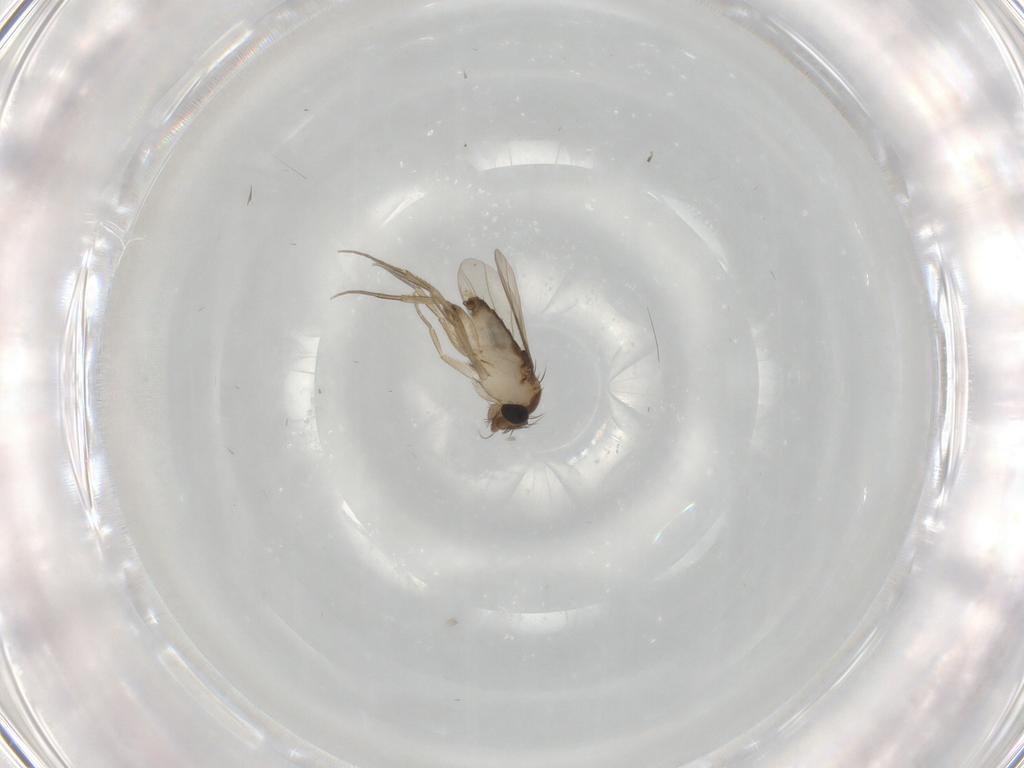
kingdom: Animalia
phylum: Arthropoda
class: Insecta
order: Diptera
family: Phoridae
